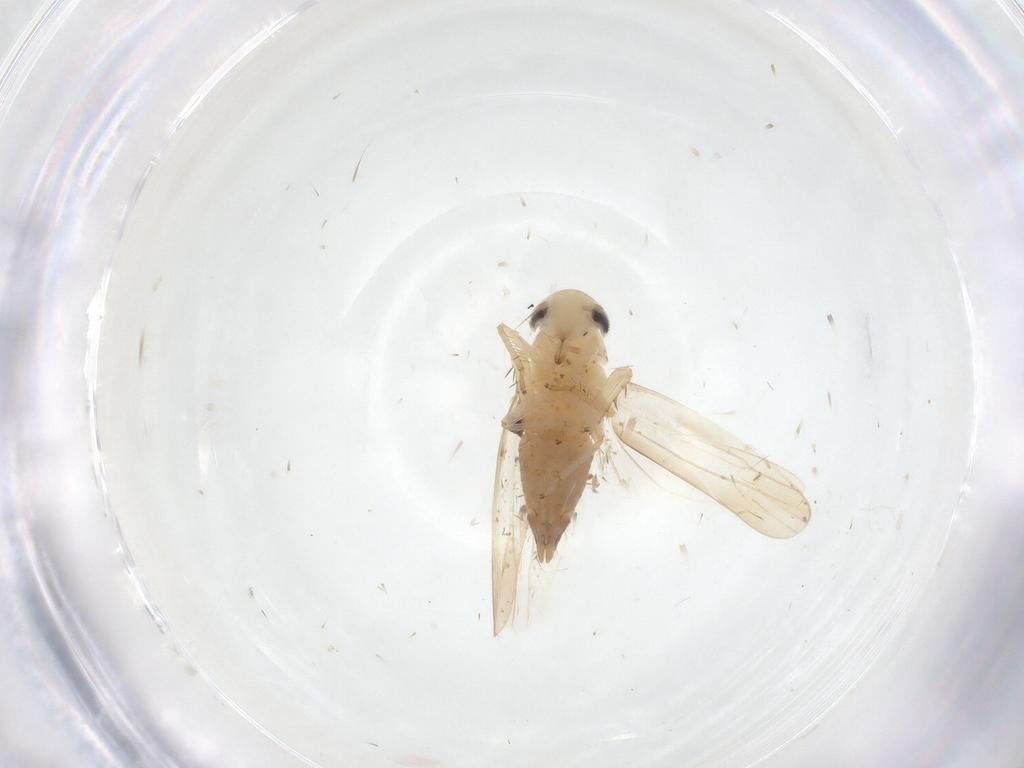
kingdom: Animalia
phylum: Arthropoda
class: Insecta
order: Hemiptera
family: Cicadellidae
